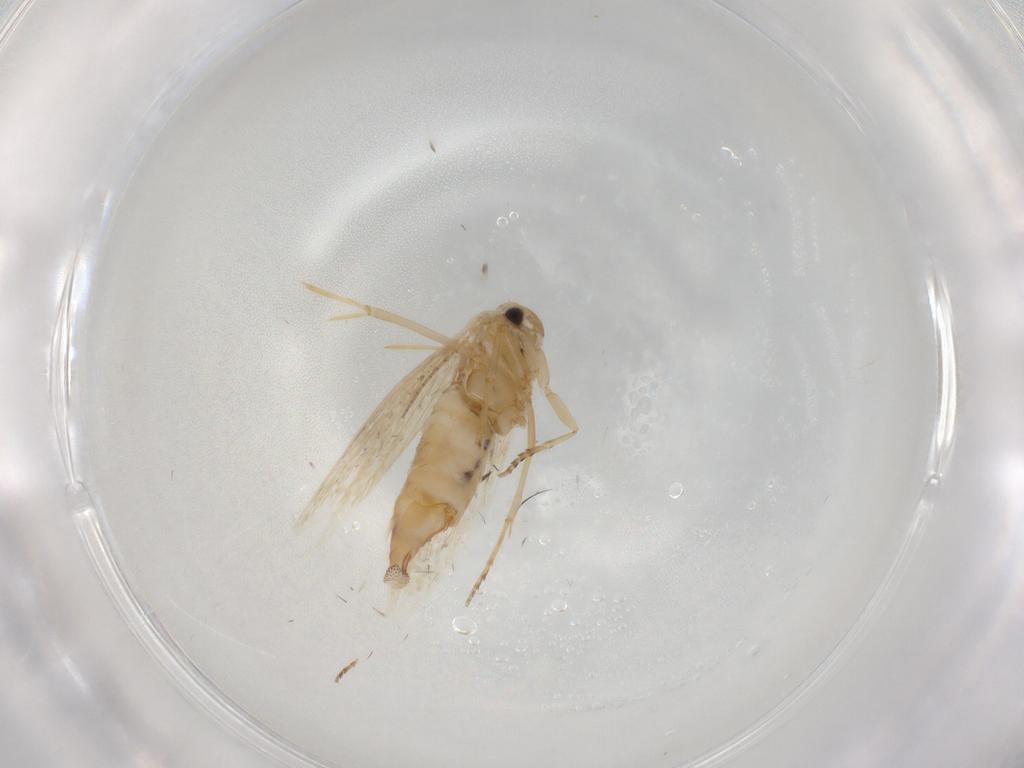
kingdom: Animalia
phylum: Arthropoda
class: Insecta
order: Lepidoptera
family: Bucculatricidae
